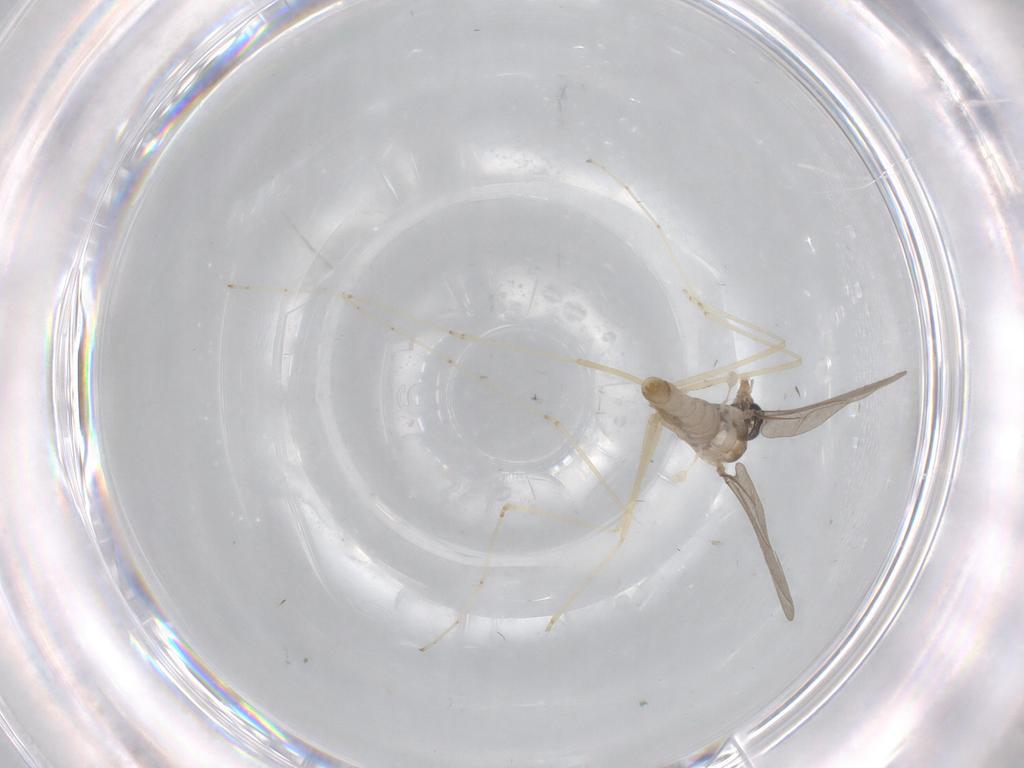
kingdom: Animalia
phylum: Arthropoda
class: Insecta
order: Diptera
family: Cecidomyiidae
